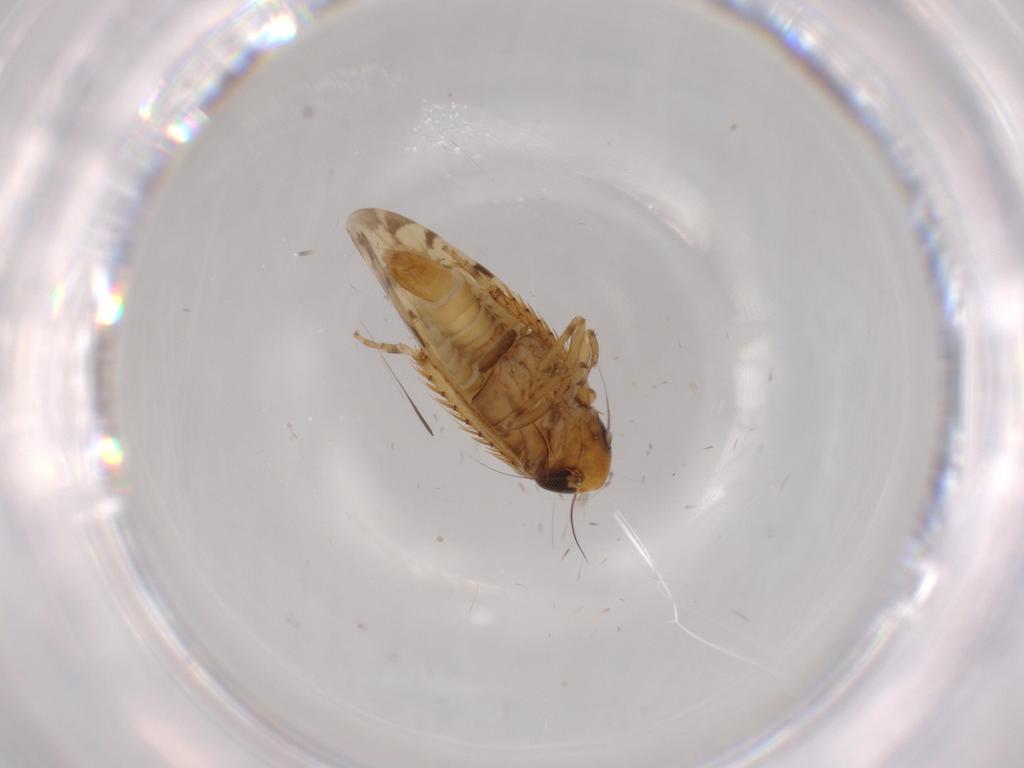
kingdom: Animalia
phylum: Arthropoda
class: Insecta
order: Hemiptera
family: Cicadellidae
